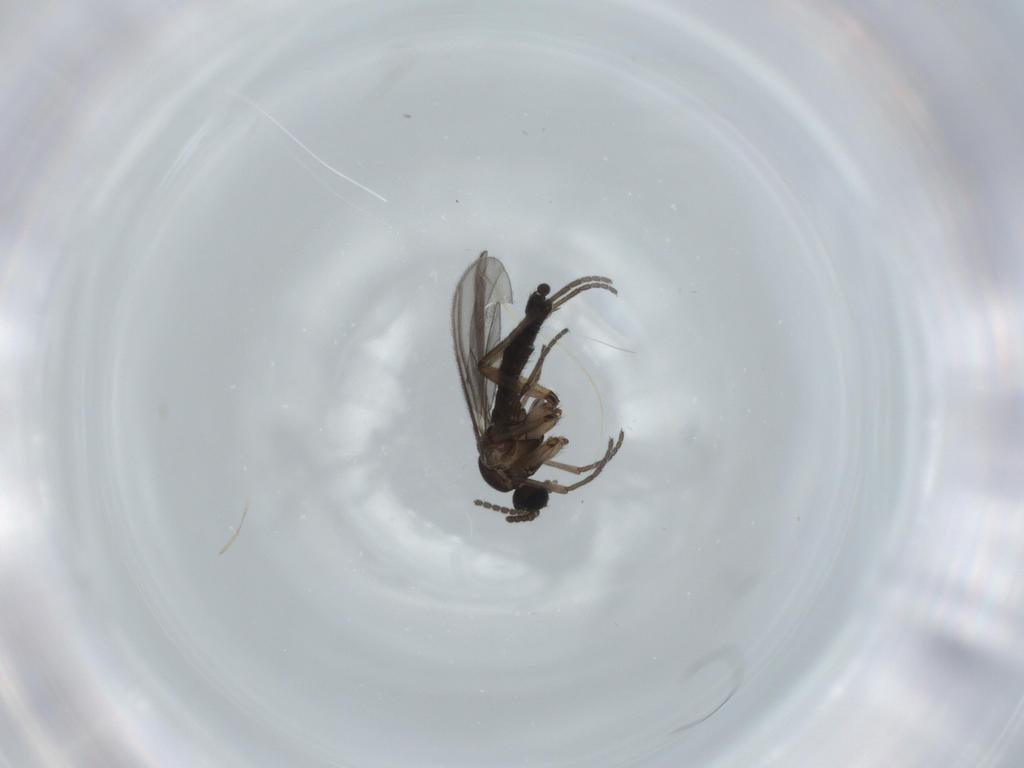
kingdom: Animalia
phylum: Arthropoda
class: Insecta
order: Diptera
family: Sciaridae
